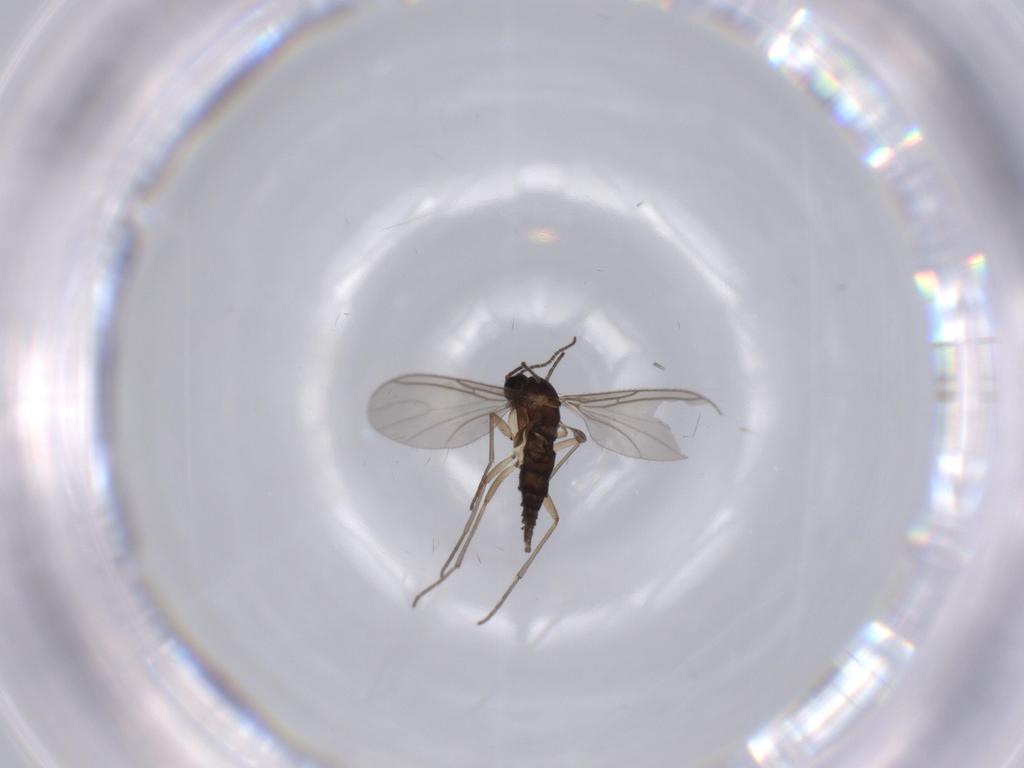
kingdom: Animalia
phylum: Arthropoda
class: Insecta
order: Diptera
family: Sciaridae
